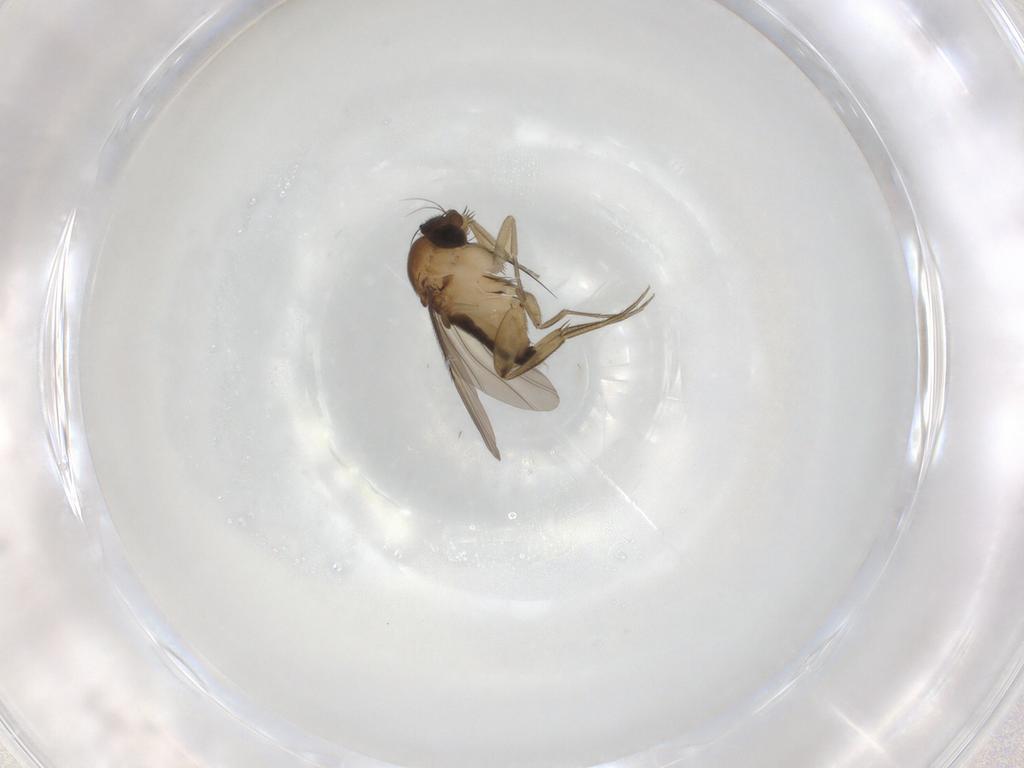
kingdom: Animalia
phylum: Arthropoda
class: Insecta
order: Diptera
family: Phoridae
